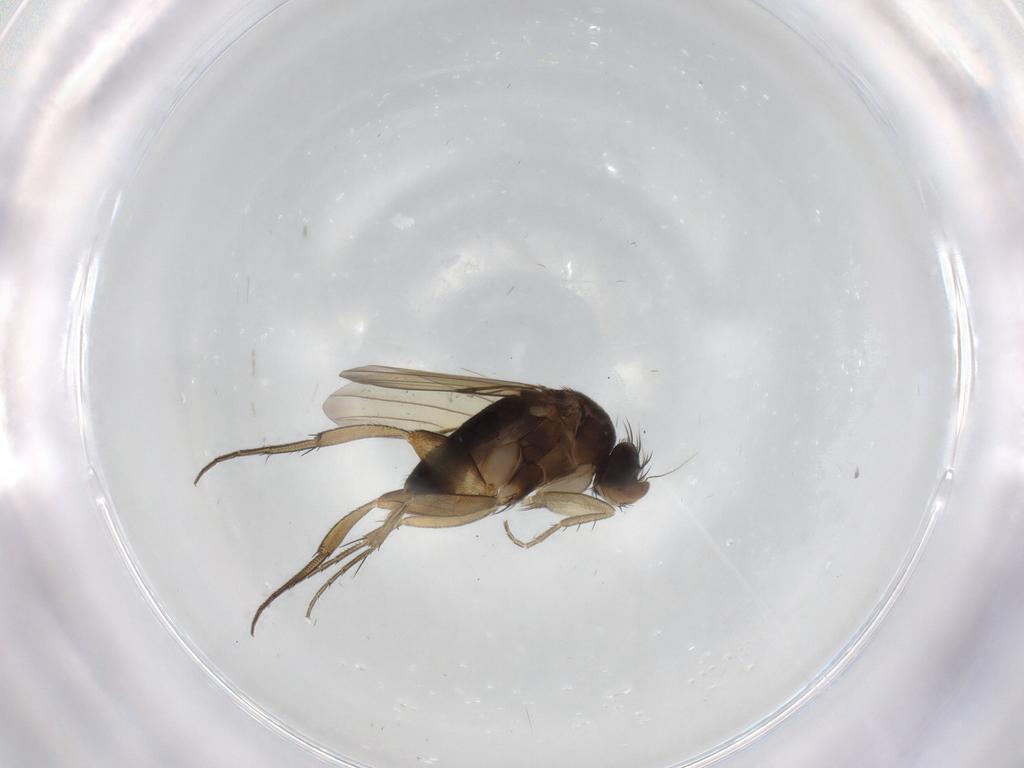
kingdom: Animalia
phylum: Arthropoda
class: Insecta
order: Diptera
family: Phoridae
